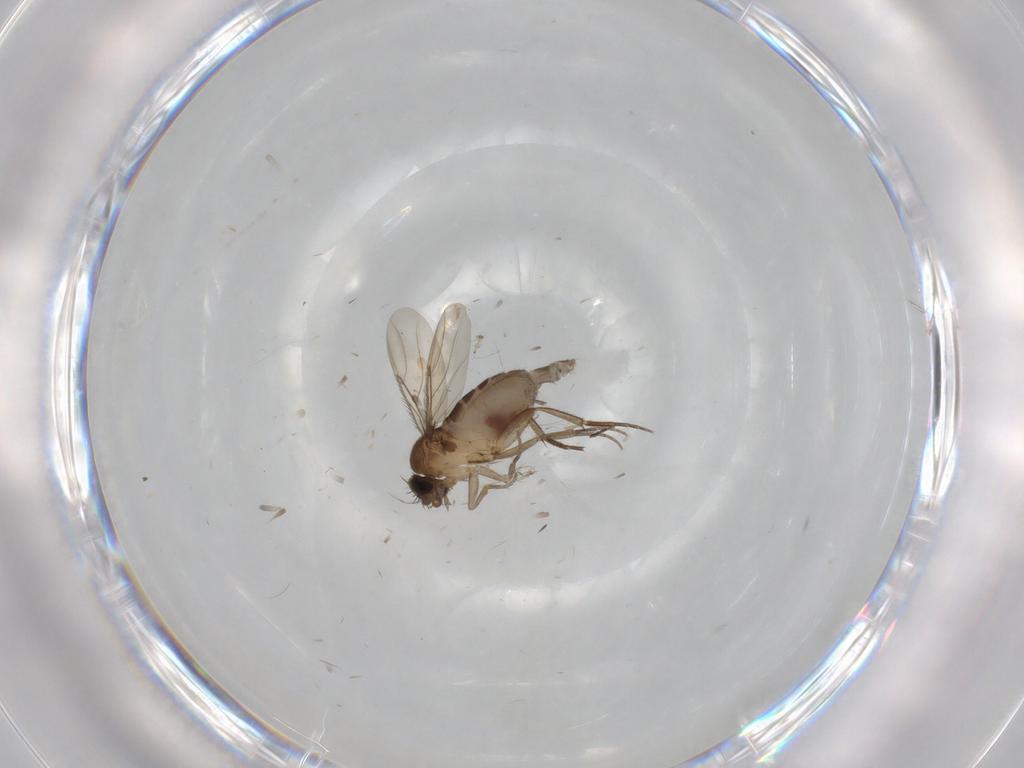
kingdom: Animalia
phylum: Arthropoda
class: Insecta
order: Diptera
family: Phoridae
